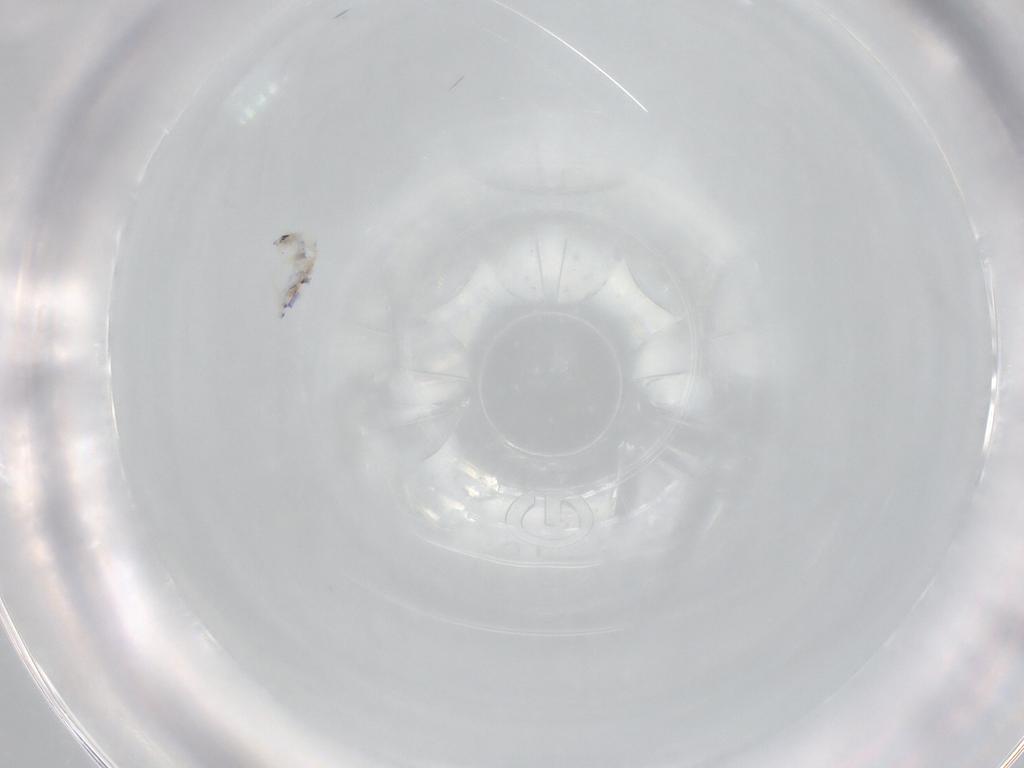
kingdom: Animalia
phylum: Arthropoda
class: Collembola
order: Entomobryomorpha
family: Entomobryidae
